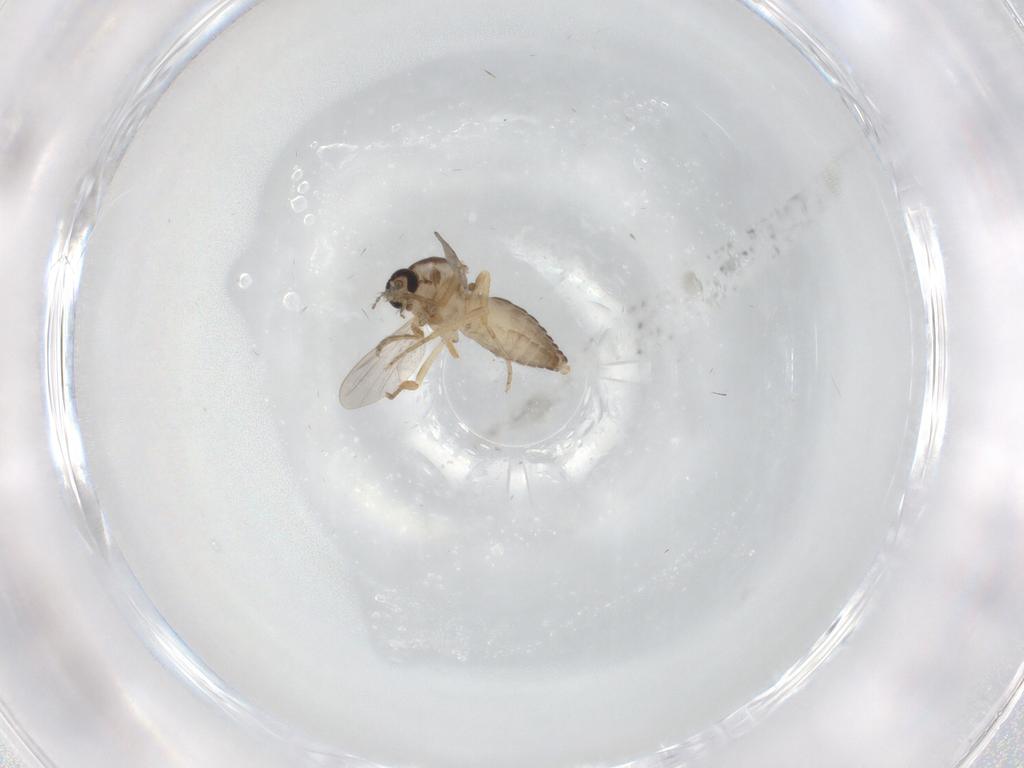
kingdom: Animalia
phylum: Arthropoda
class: Insecta
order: Diptera
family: Ceratopogonidae
